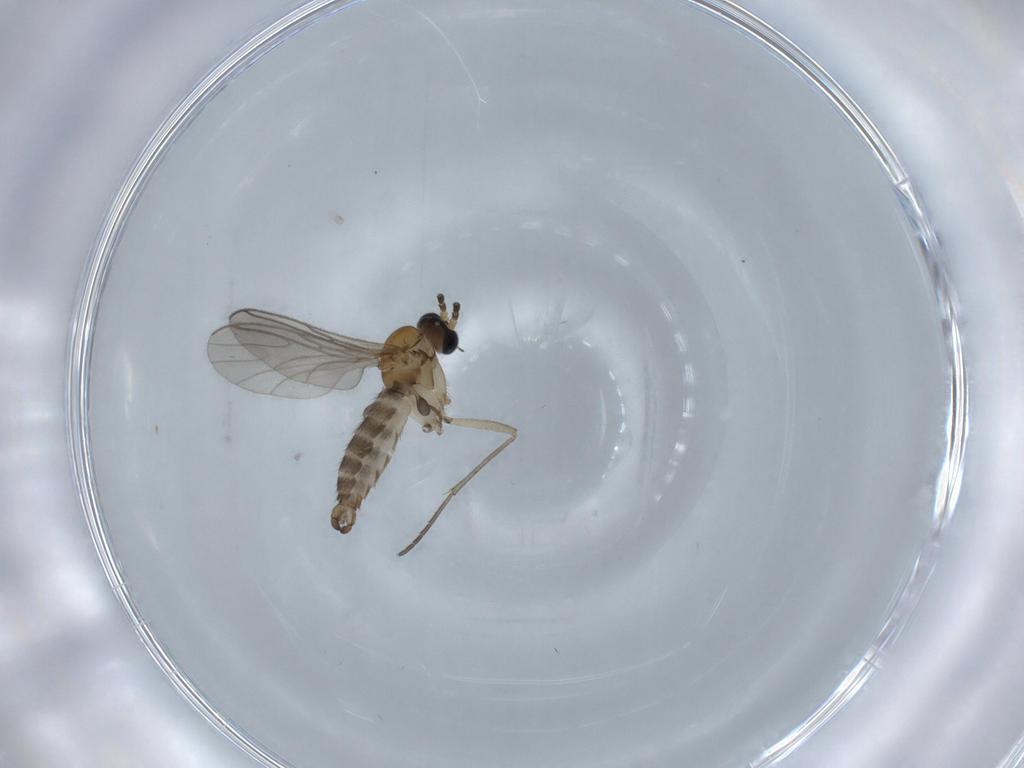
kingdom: Animalia
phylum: Arthropoda
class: Insecta
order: Diptera
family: Sciaridae
